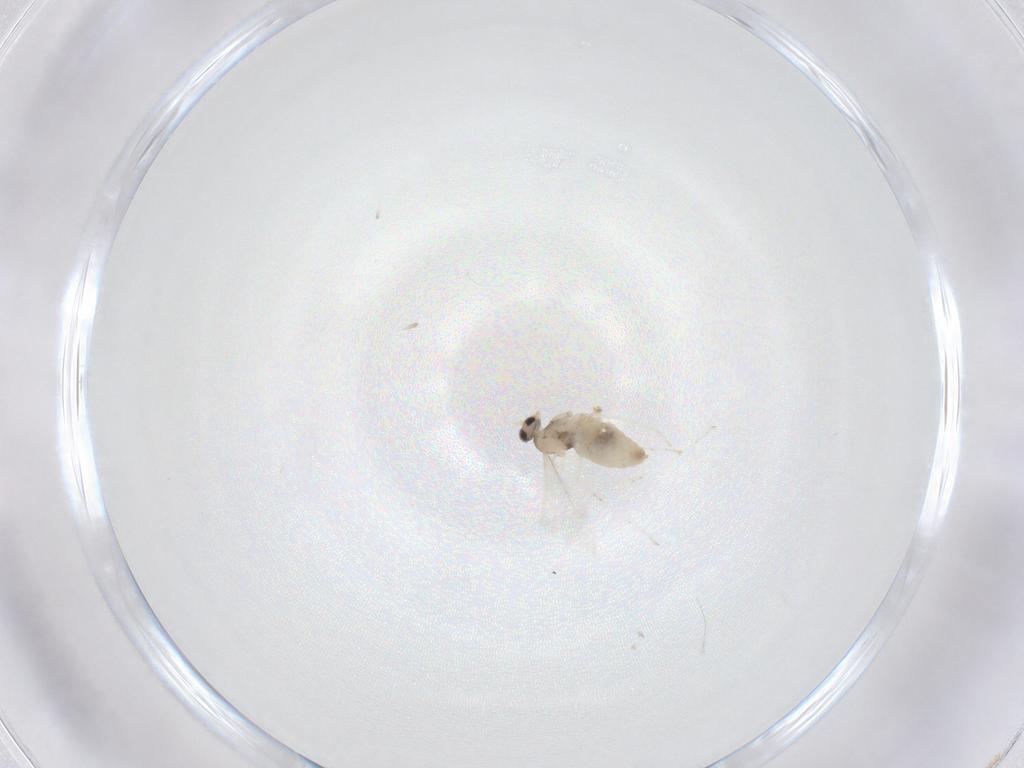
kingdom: Animalia
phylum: Arthropoda
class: Insecta
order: Diptera
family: Cecidomyiidae
